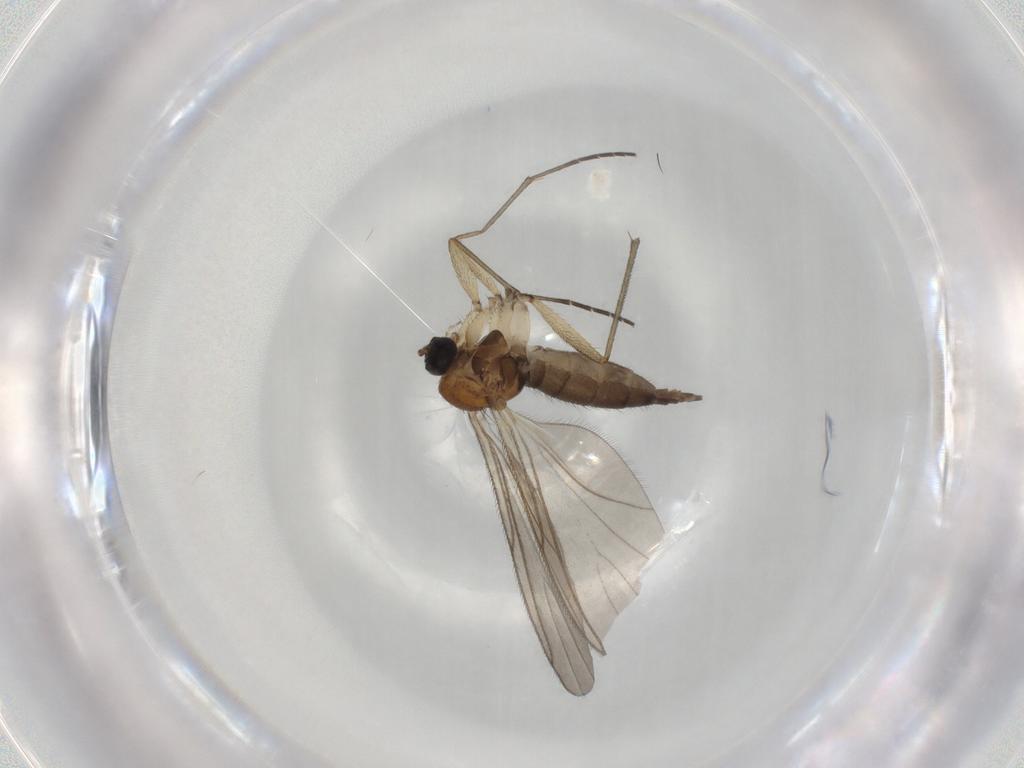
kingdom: Animalia
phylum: Arthropoda
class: Insecta
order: Diptera
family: Sciaridae
